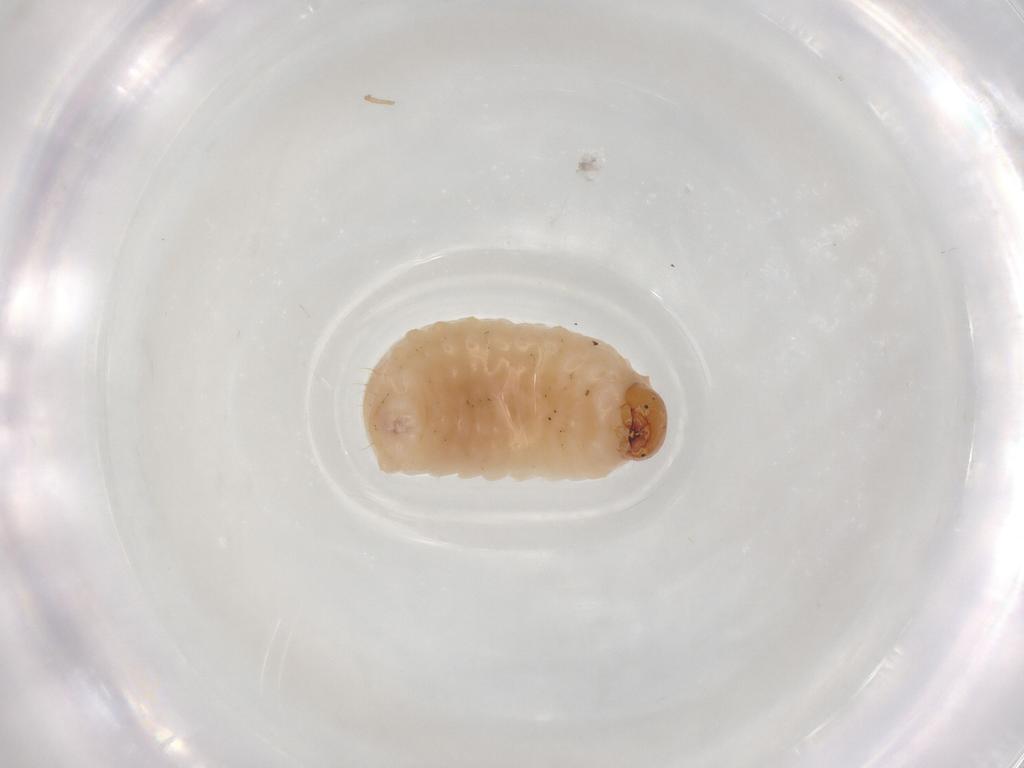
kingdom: Animalia
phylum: Arthropoda
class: Insecta
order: Coleoptera
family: Curculionidae
